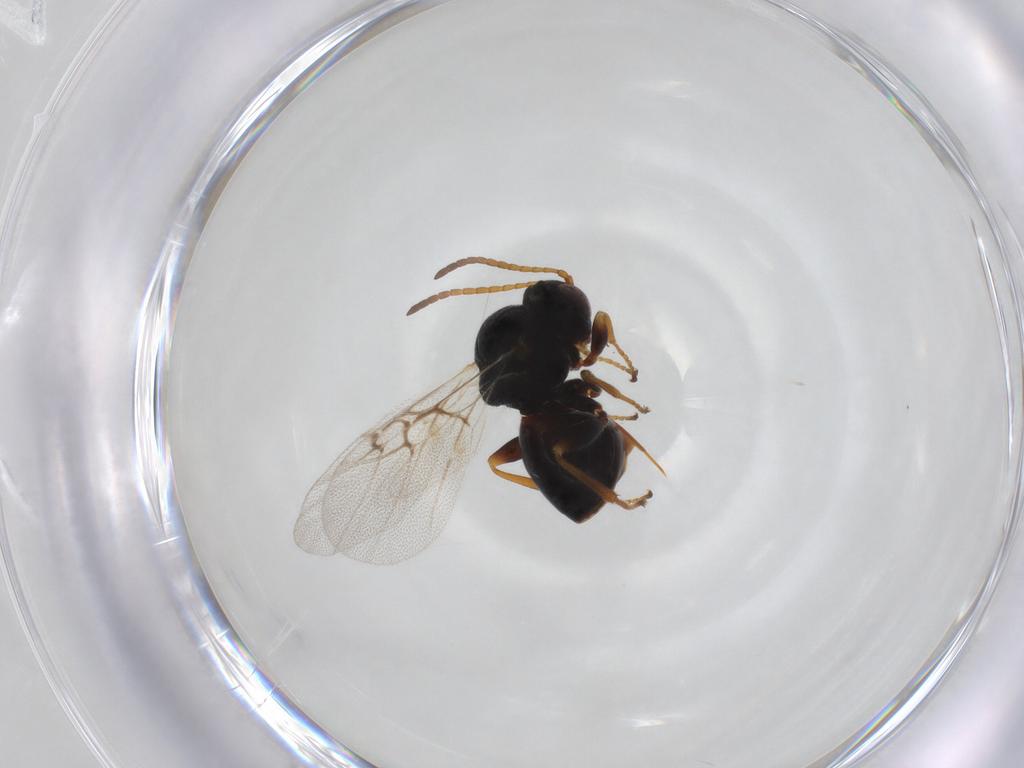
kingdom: Animalia
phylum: Arthropoda
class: Insecta
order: Hymenoptera
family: Cynipidae
